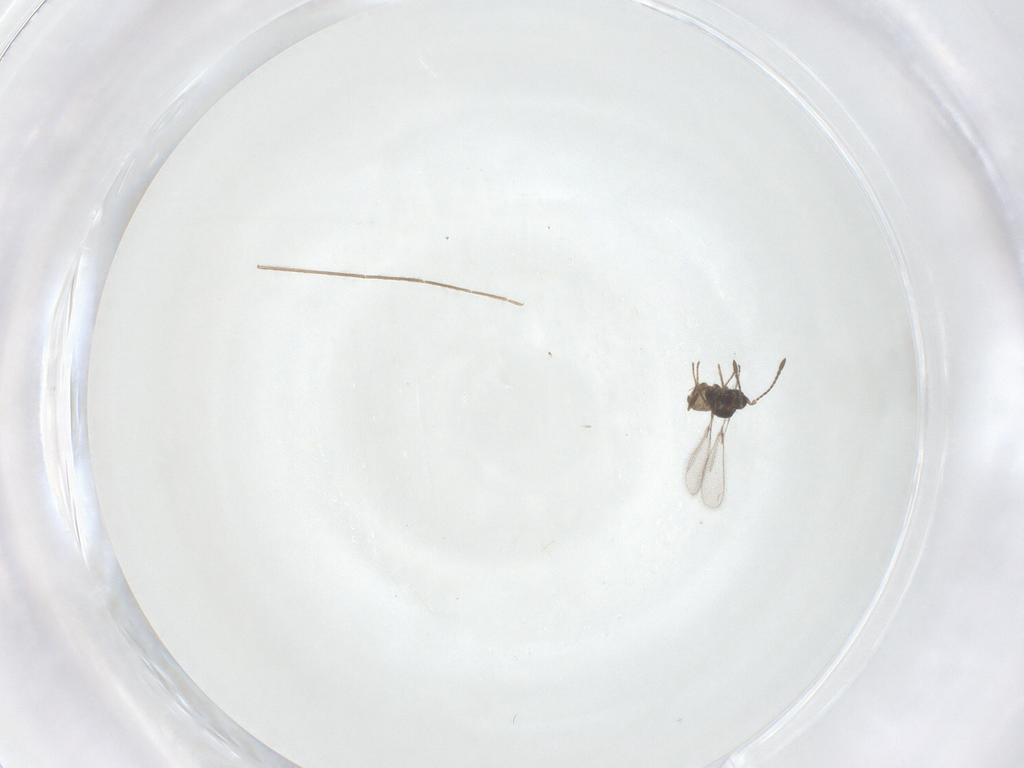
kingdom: Animalia
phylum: Arthropoda
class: Insecta
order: Diptera
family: Chironomidae
